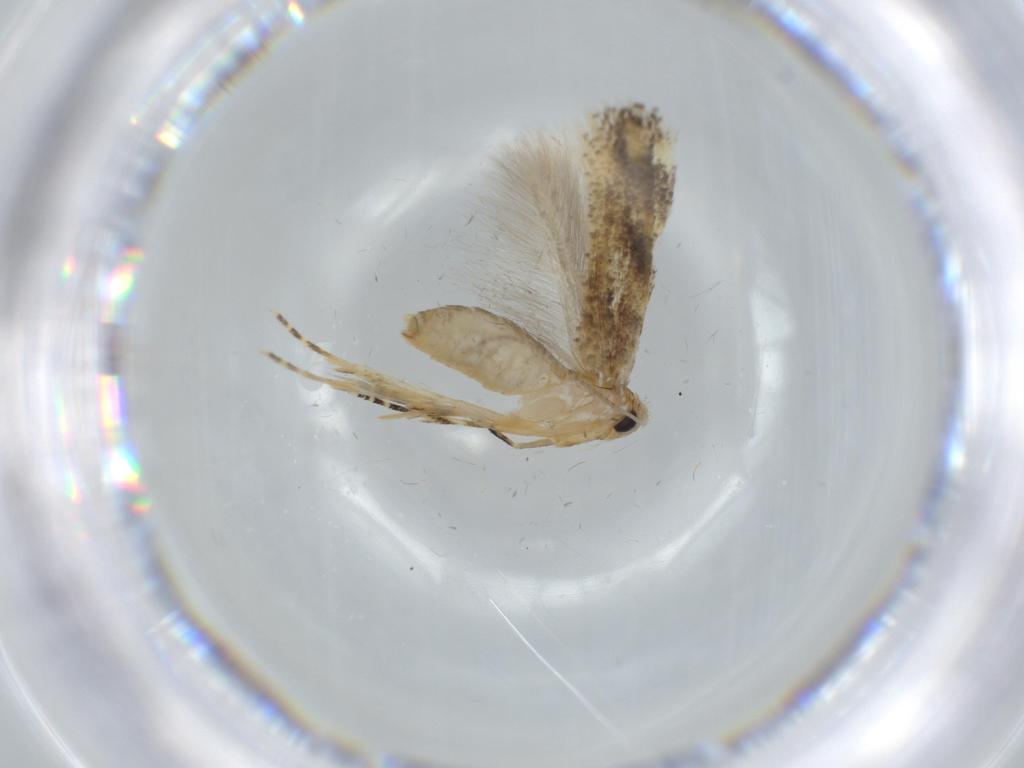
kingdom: Animalia
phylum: Arthropoda
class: Insecta
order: Lepidoptera
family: Bucculatricidae
